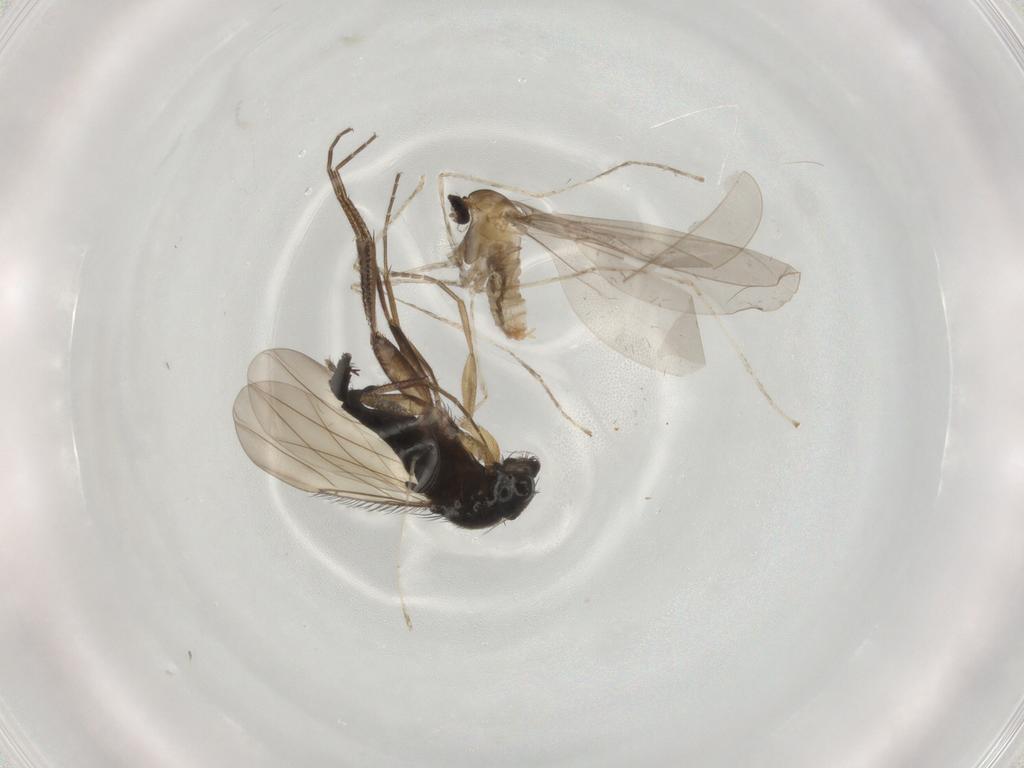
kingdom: Animalia
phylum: Arthropoda
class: Insecta
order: Diptera
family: Phoridae
